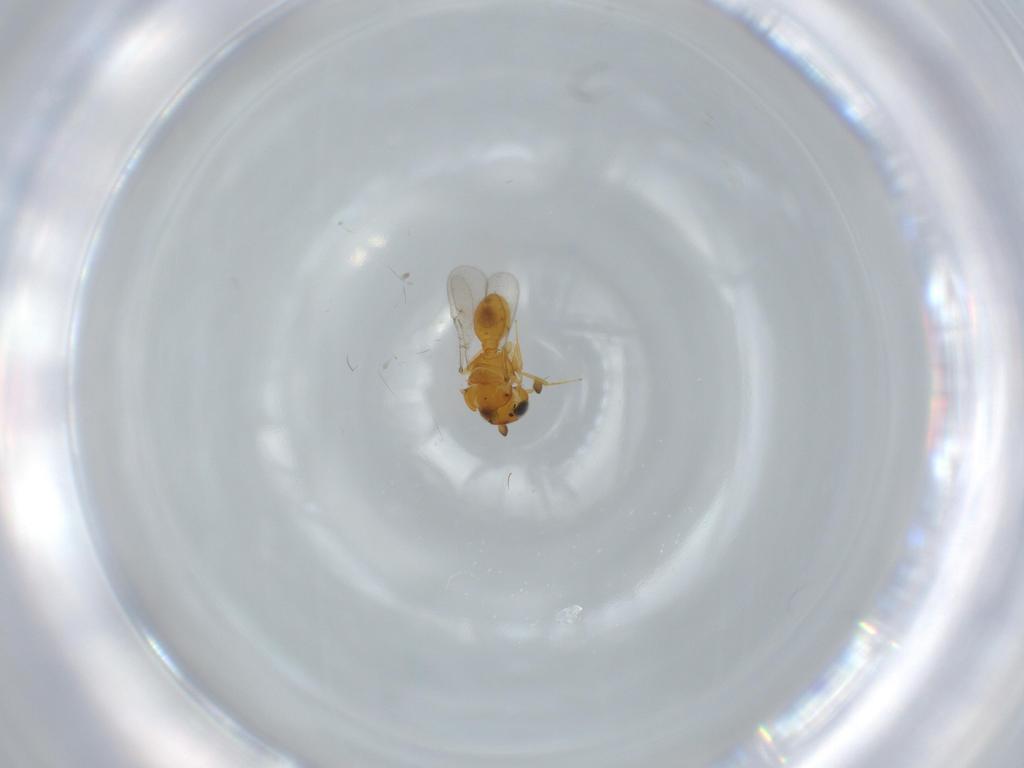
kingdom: Animalia
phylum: Arthropoda
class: Insecta
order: Hymenoptera
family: Scelionidae
